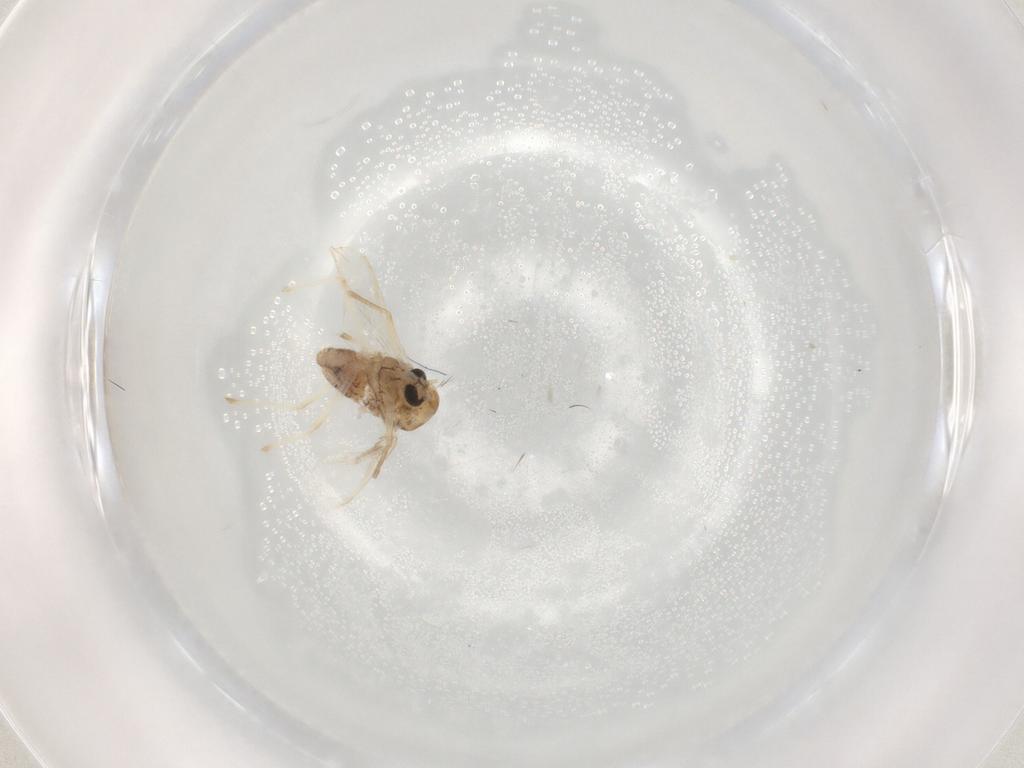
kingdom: Animalia
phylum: Arthropoda
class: Insecta
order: Diptera
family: Chironomidae
